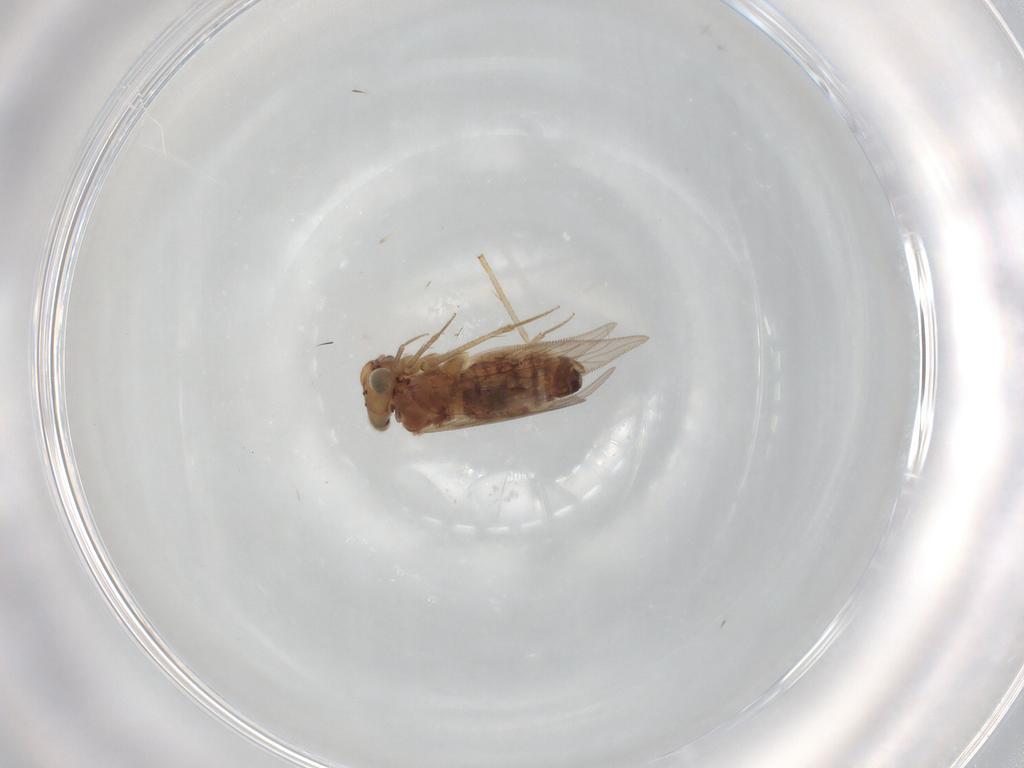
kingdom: Animalia
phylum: Arthropoda
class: Insecta
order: Psocodea
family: Lepidopsocidae
